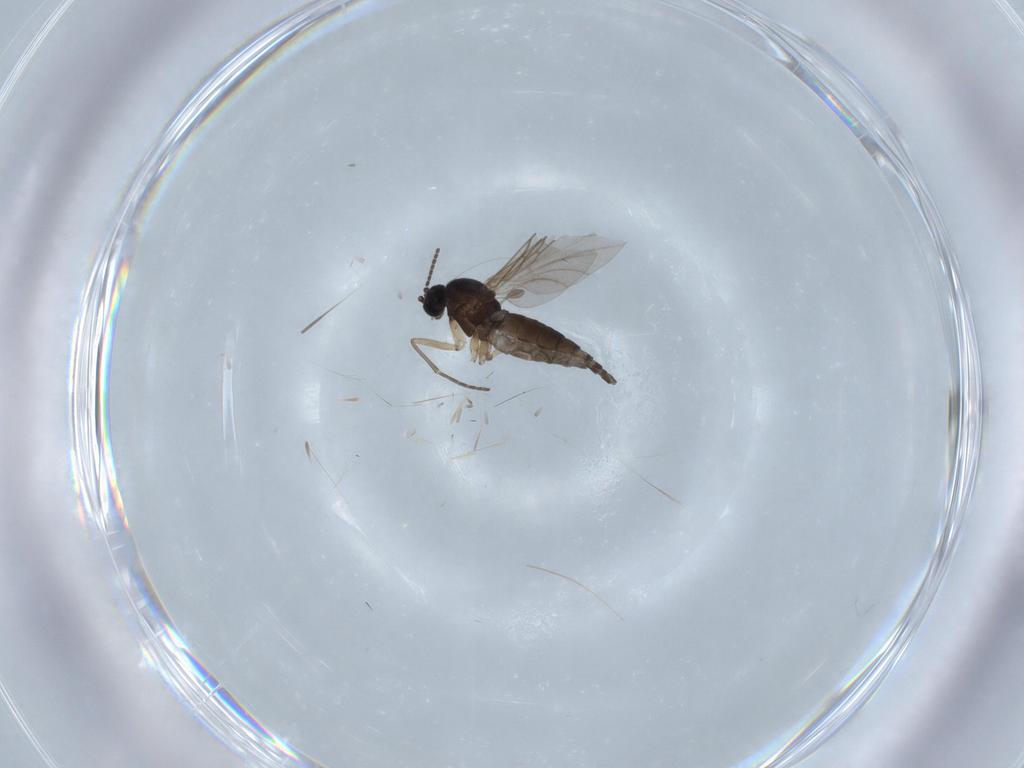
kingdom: Animalia
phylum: Arthropoda
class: Insecta
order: Diptera
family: Sciaridae
